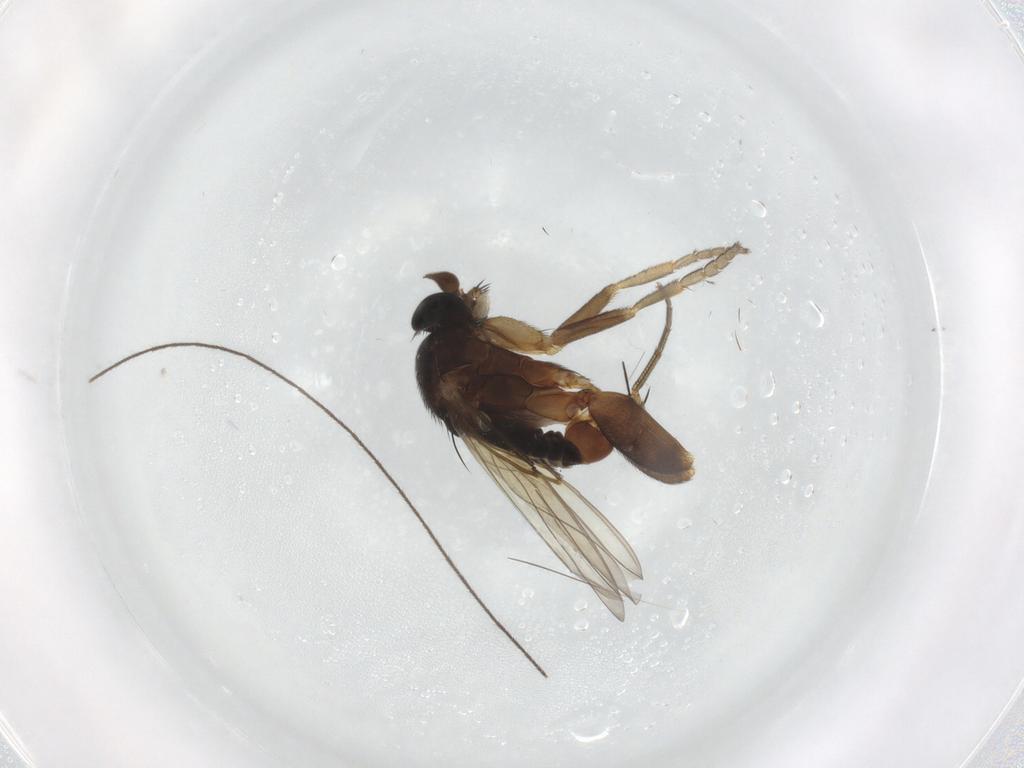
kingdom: Animalia
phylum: Arthropoda
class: Insecta
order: Diptera
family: Phoridae
